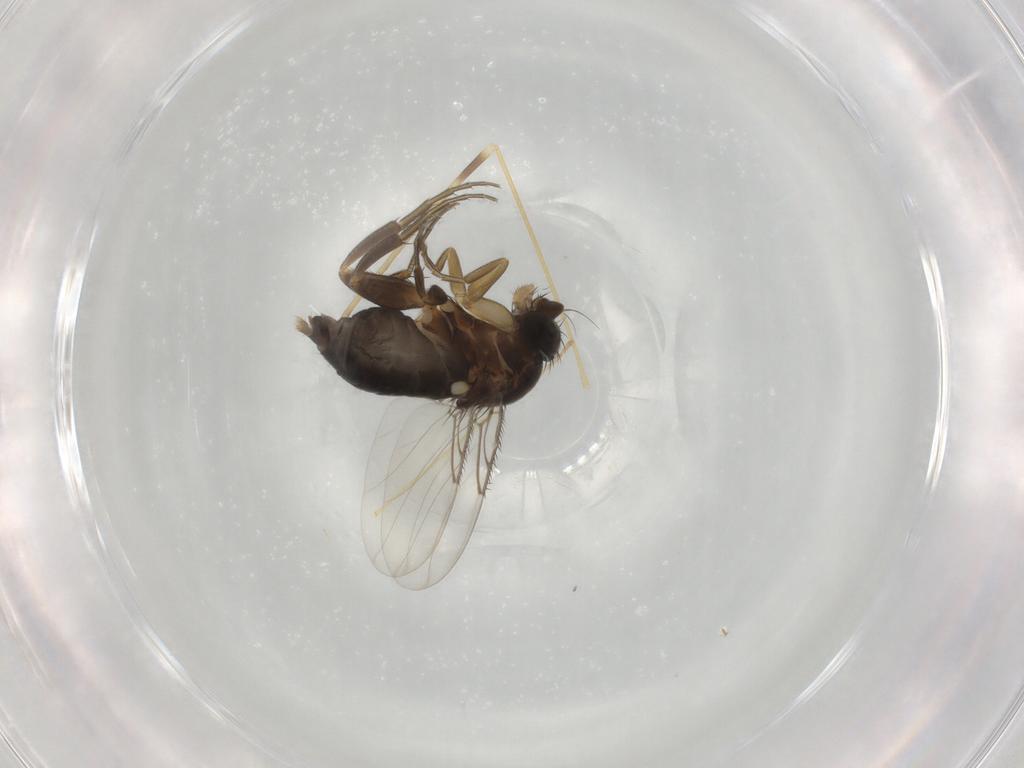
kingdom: Animalia
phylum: Arthropoda
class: Insecta
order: Diptera
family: Phoridae
